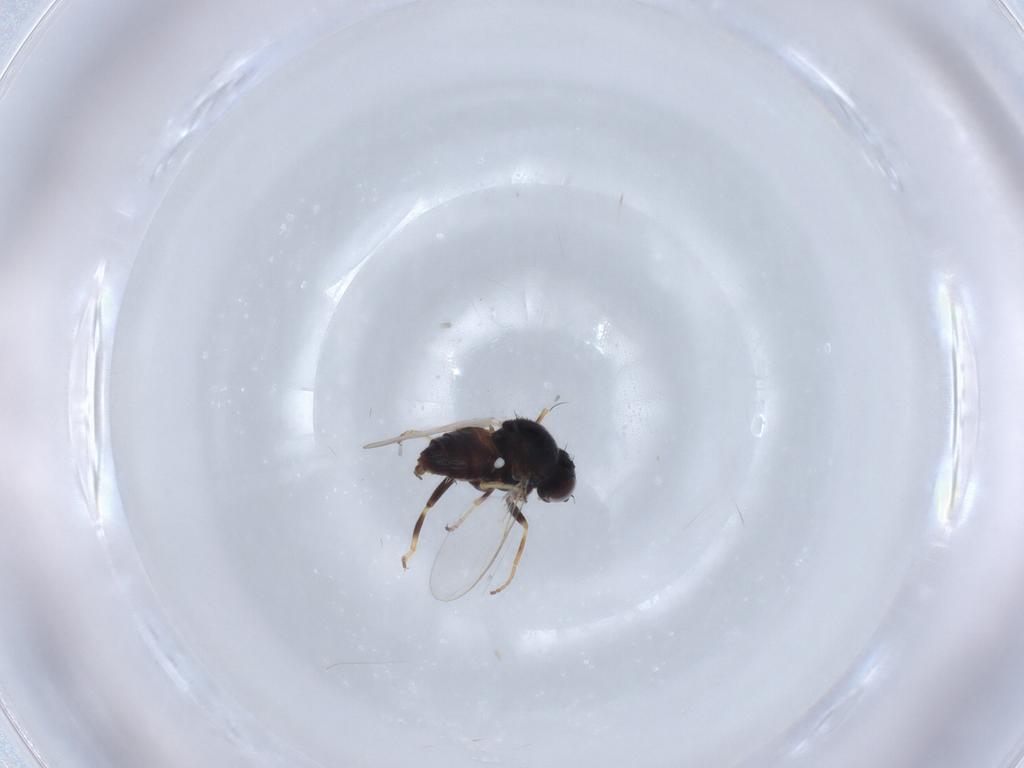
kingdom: Animalia
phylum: Arthropoda
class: Insecta
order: Diptera
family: Chloropidae
